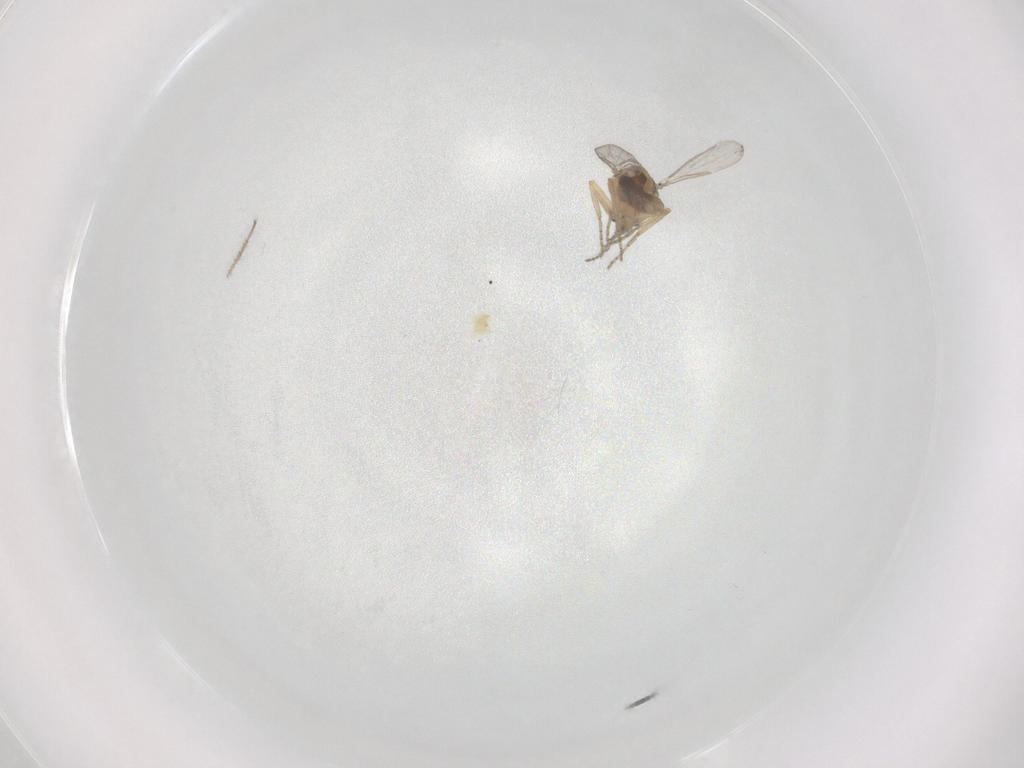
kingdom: Animalia
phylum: Arthropoda
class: Insecta
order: Diptera
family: Ceratopogonidae
